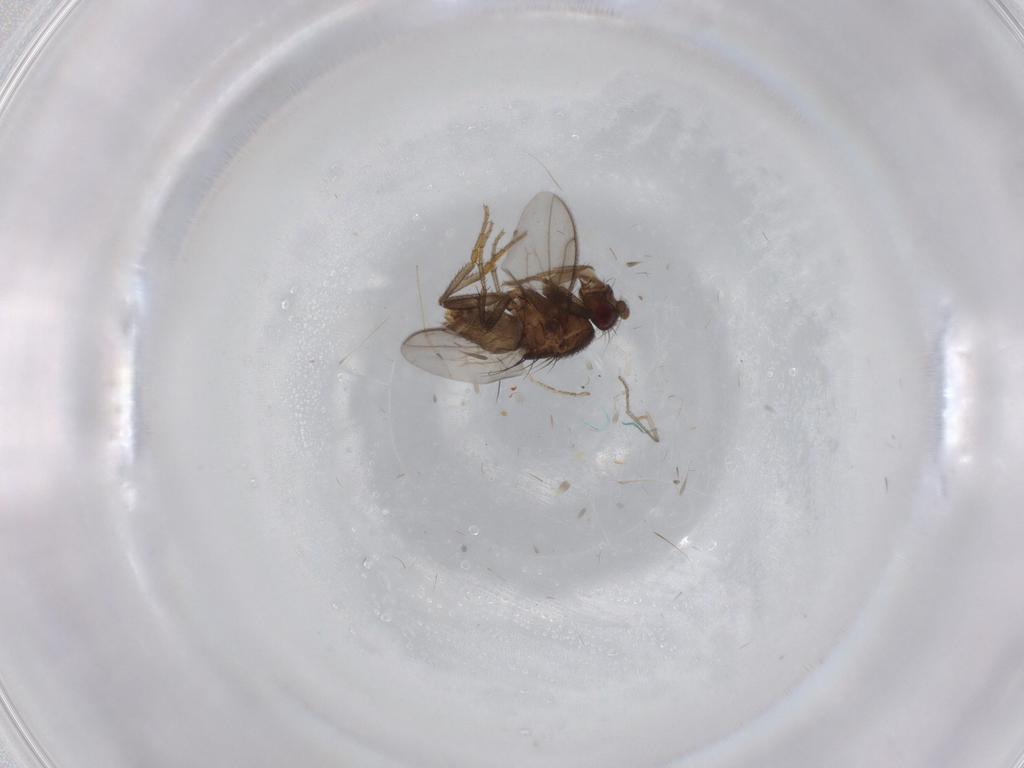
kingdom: Animalia
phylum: Arthropoda
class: Insecta
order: Diptera
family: Sphaeroceridae
